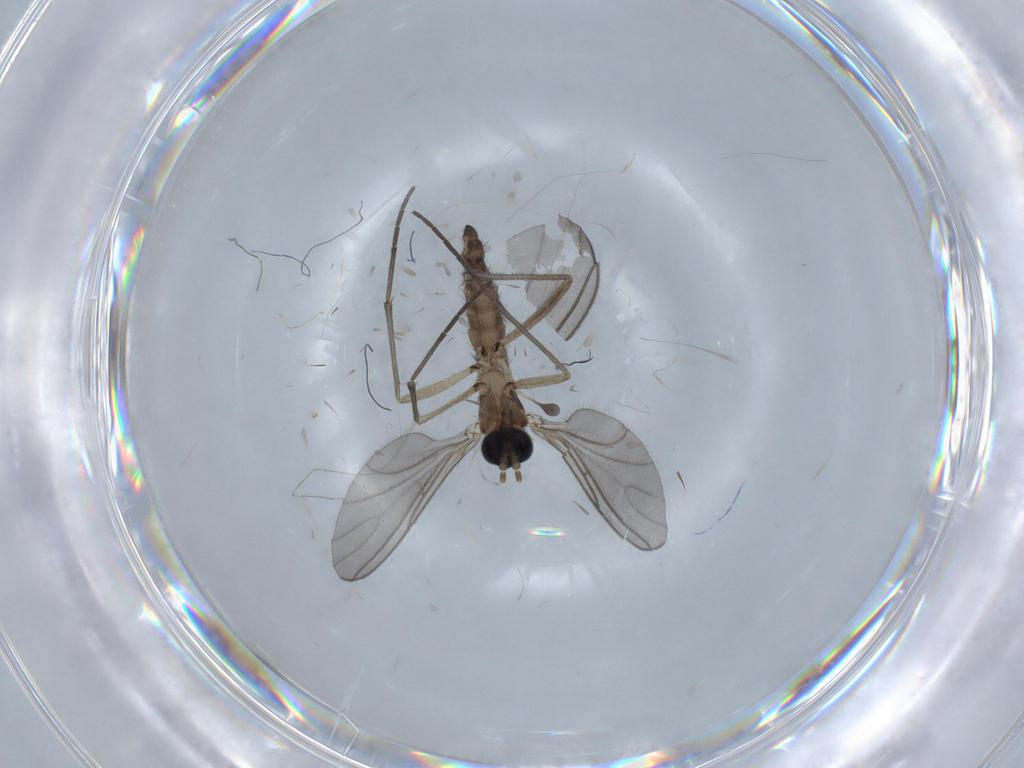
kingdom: Animalia
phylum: Arthropoda
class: Insecta
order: Diptera
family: Sciaridae
